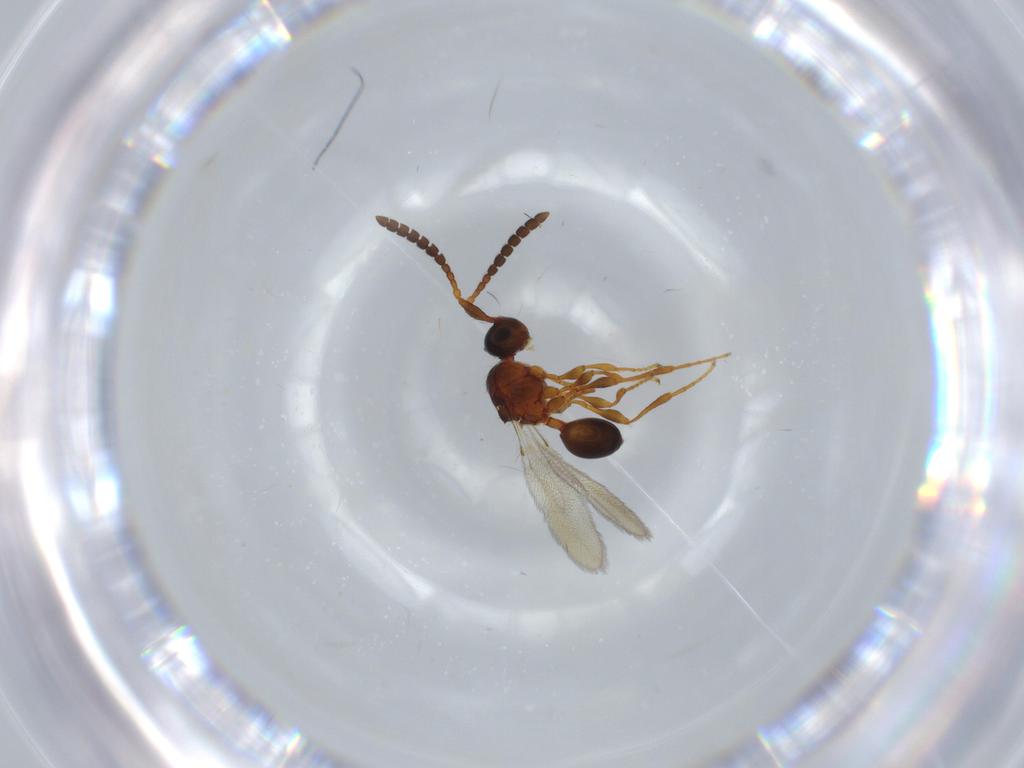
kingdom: Animalia
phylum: Arthropoda
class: Insecta
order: Hymenoptera
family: Diapriidae
